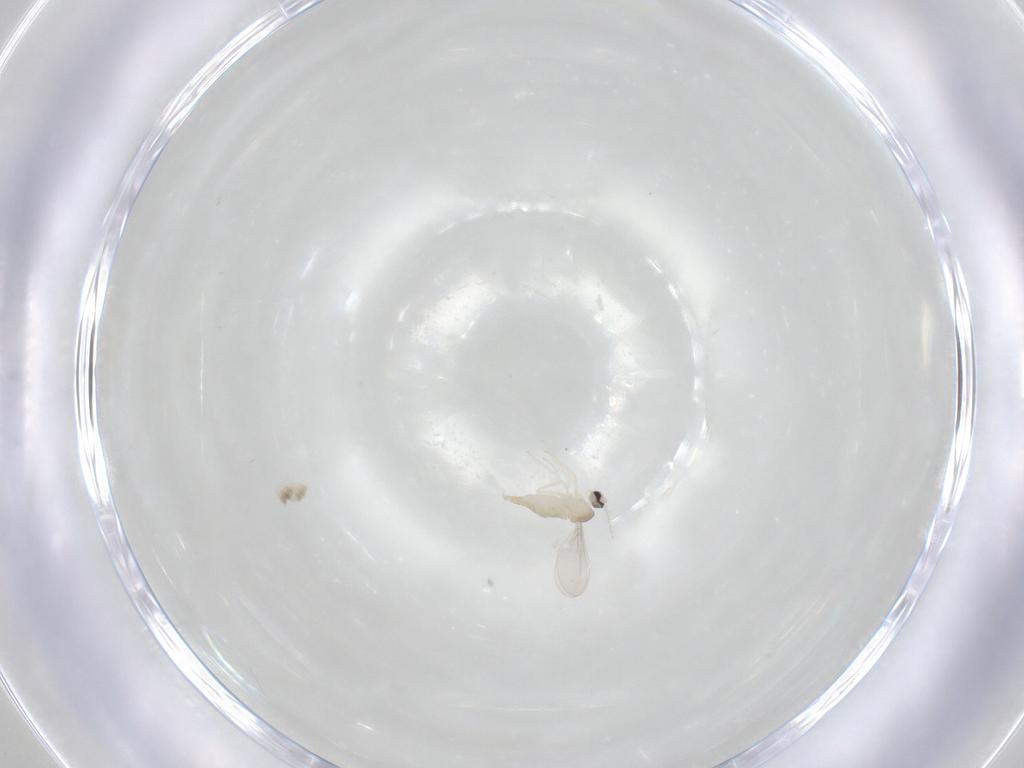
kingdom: Animalia
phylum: Arthropoda
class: Insecta
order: Diptera
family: Cecidomyiidae
